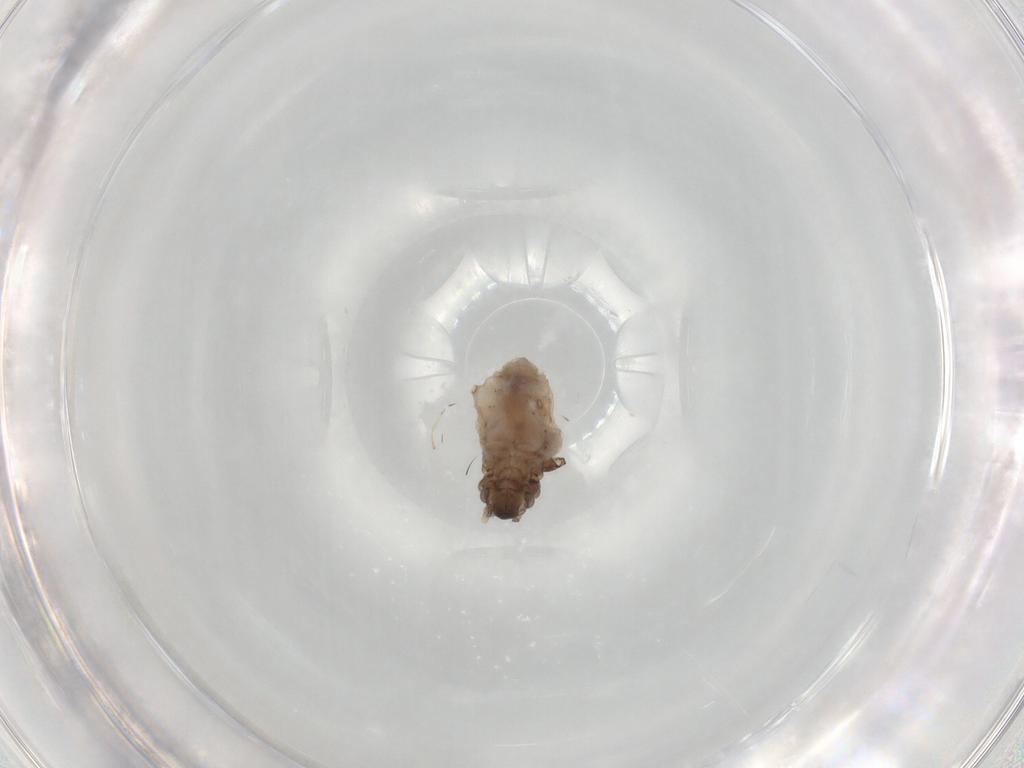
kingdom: Animalia
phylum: Arthropoda
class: Insecta
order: Hemiptera
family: Aphididae
